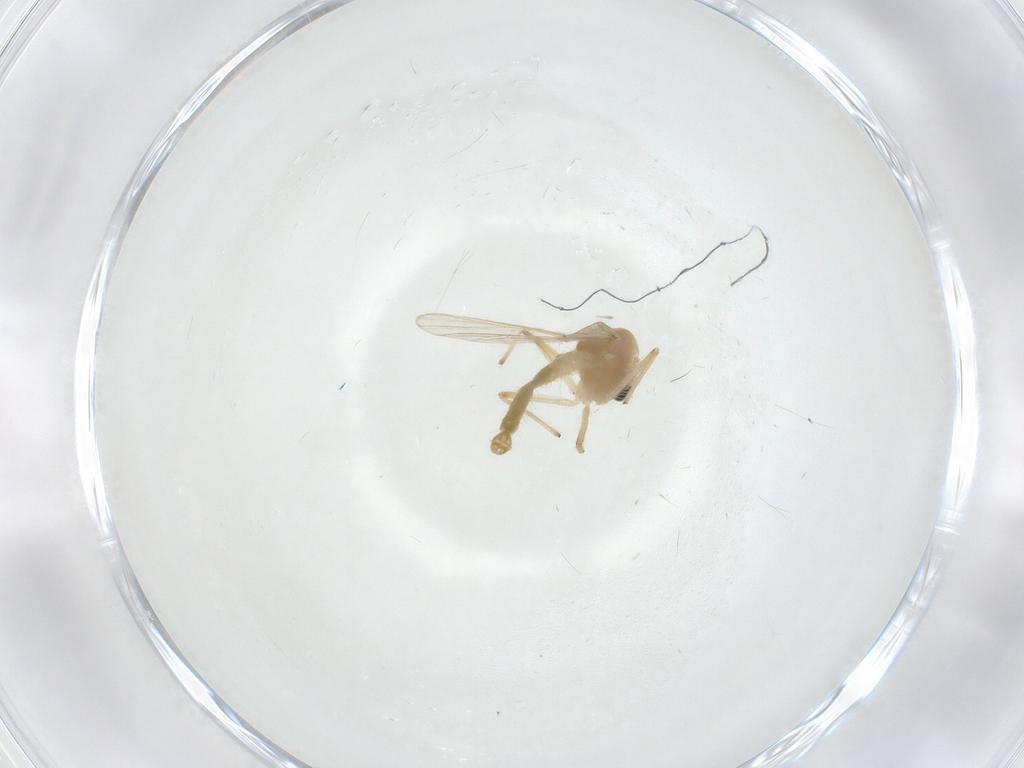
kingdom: Animalia
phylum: Arthropoda
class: Insecta
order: Diptera
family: Chironomidae
